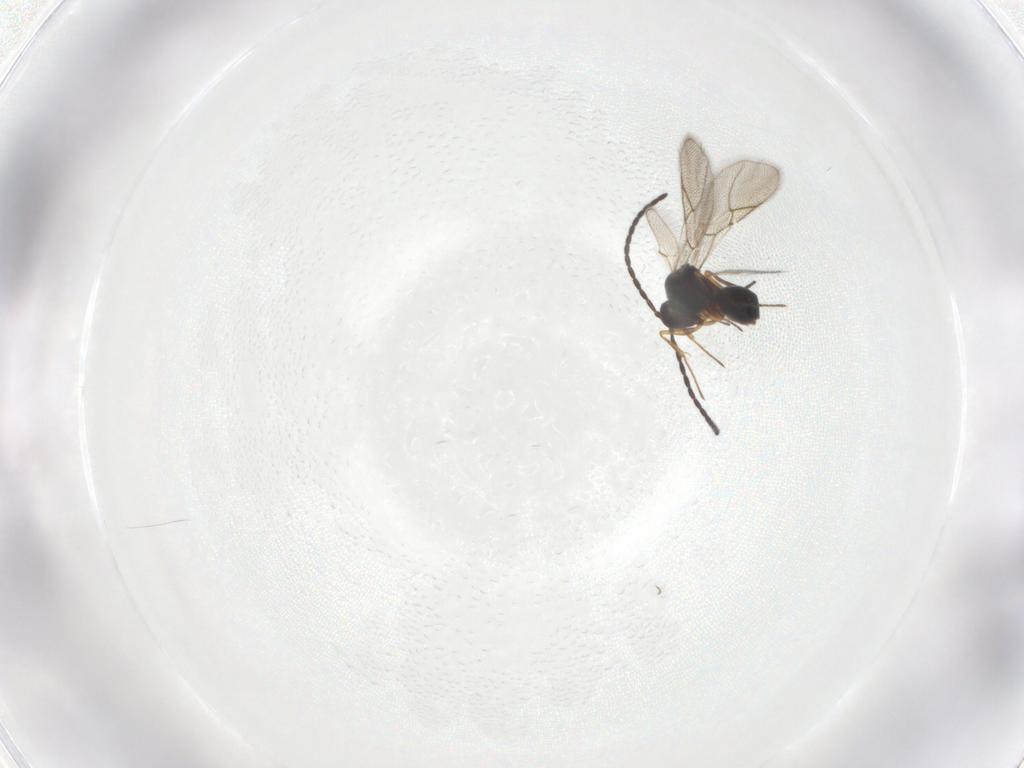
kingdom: Animalia
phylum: Arthropoda
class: Insecta
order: Hymenoptera
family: Figitidae
